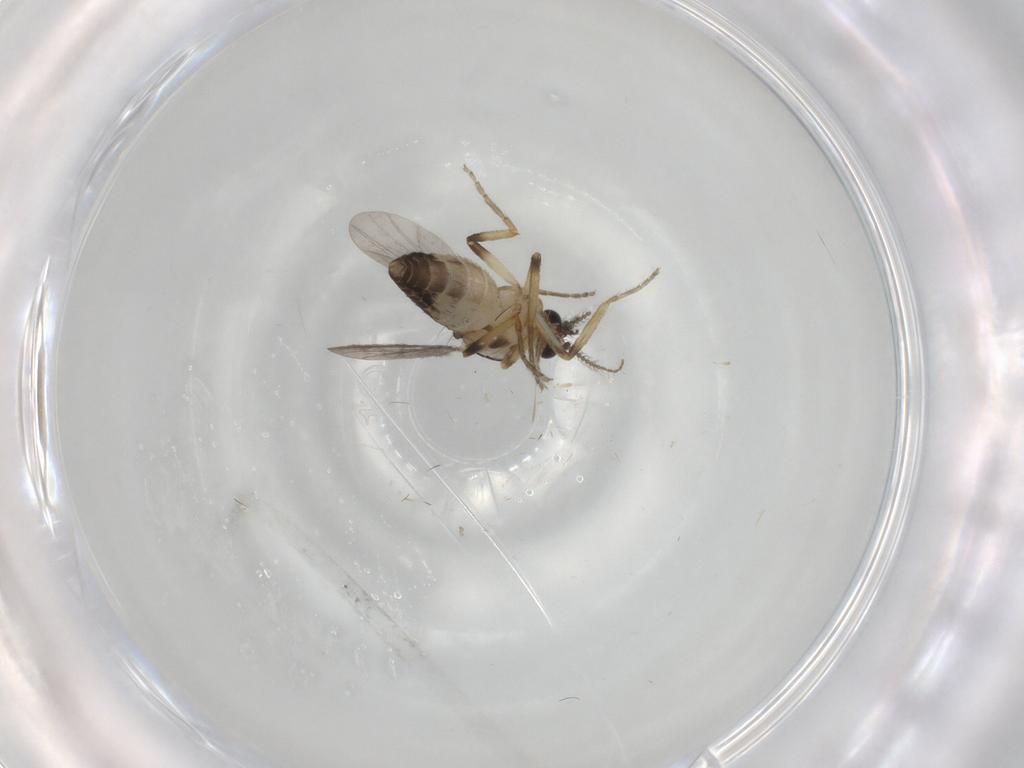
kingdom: Animalia
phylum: Arthropoda
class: Insecta
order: Diptera
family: Ceratopogonidae
